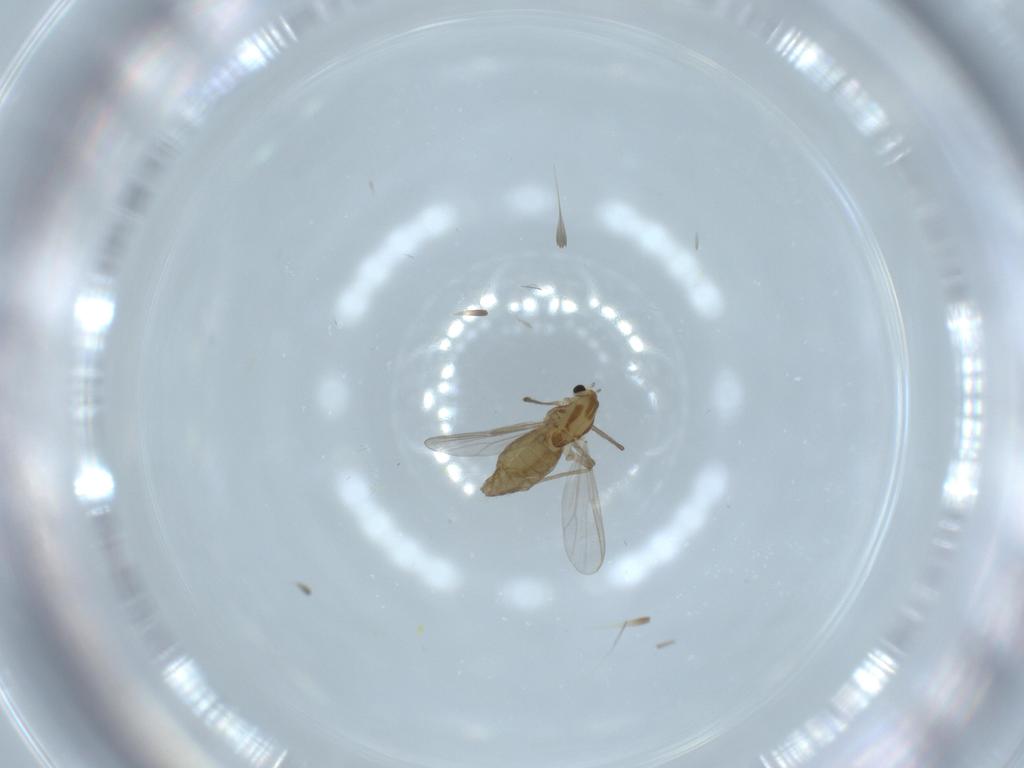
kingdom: Animalia
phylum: Arthropoda
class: Insecta
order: Diptera
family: Chironomidae
